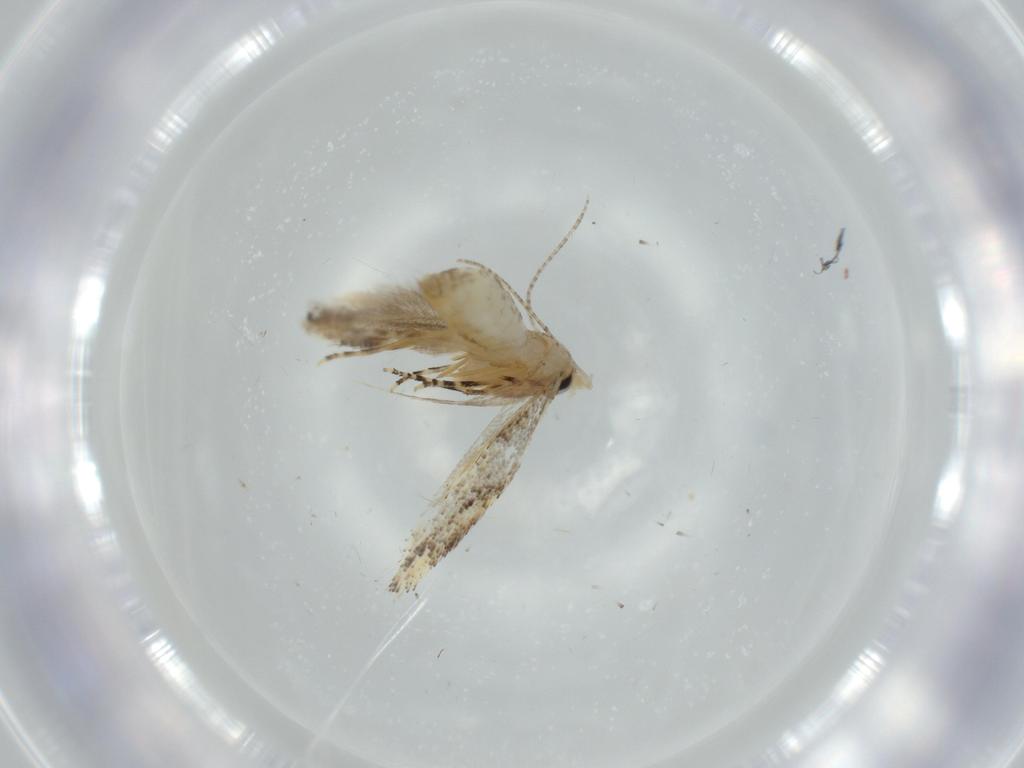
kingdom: Animalia
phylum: Arthropoda
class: Insecta
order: Lepidoptera
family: Bucculatricidae
